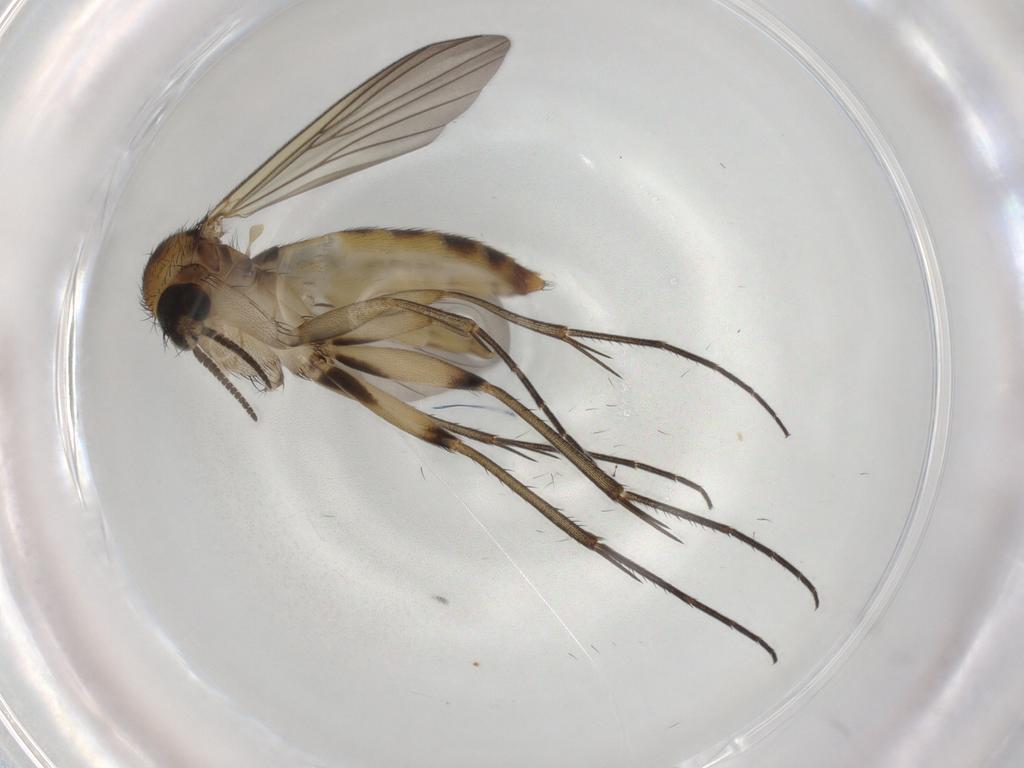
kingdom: Animalia
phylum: Arthropoda
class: Insecta
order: Diptera
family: Mycetophilidae
